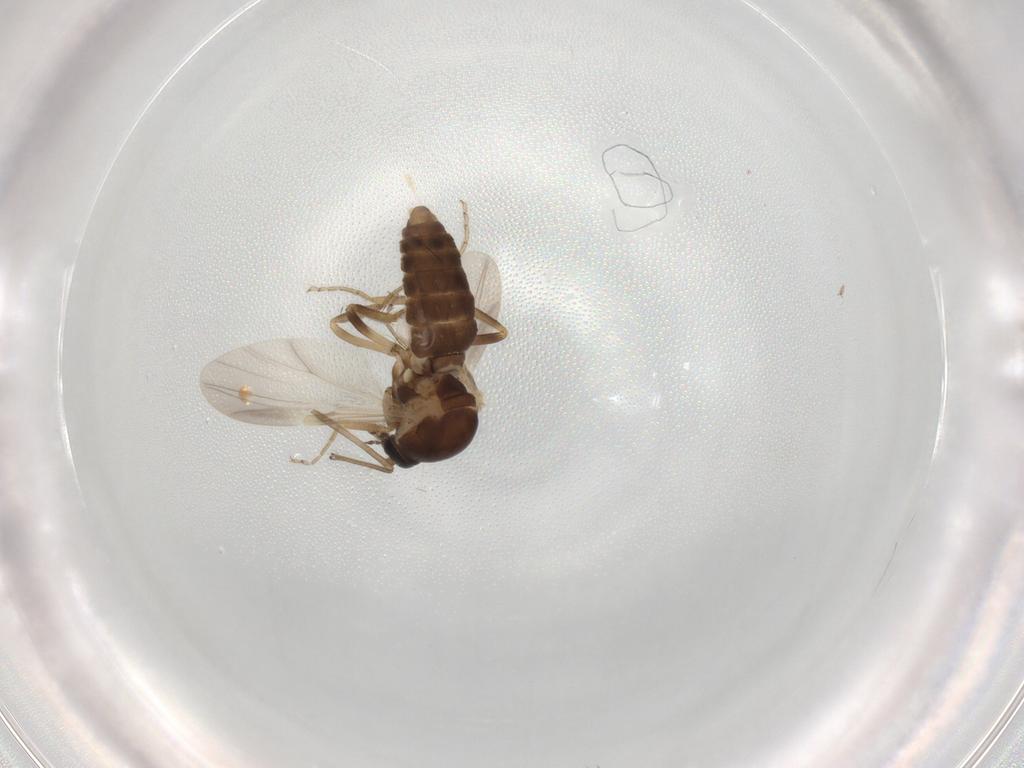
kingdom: Animalia
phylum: Arthropoda
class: Insecta
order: Diptera
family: Ceratopogonidae
